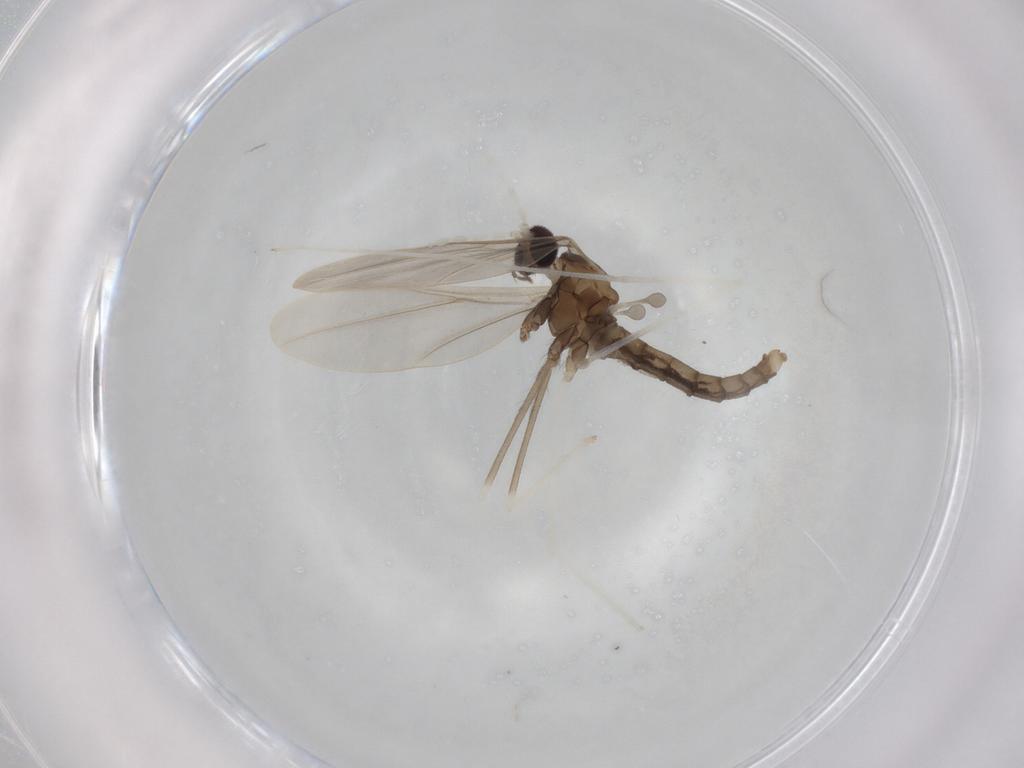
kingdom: Animalia
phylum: Arthropoda
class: Insecta
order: Diptera
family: Cecidomyiidae
